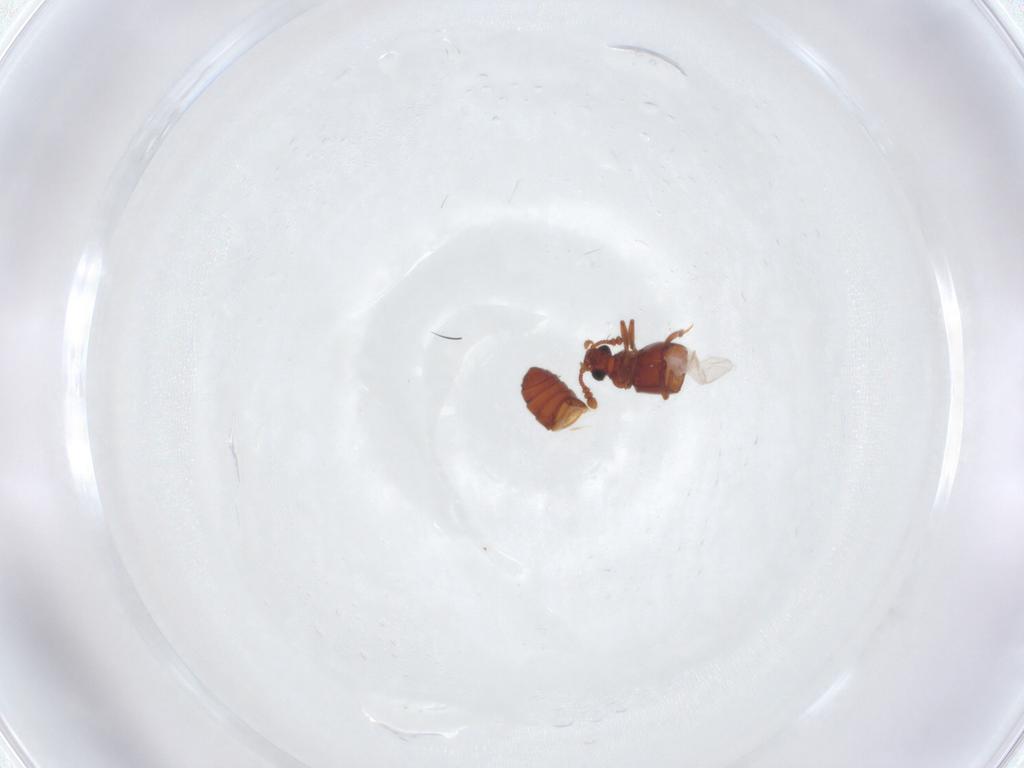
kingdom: Animalia
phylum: Arthropoda
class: Insecta
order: Coleoptera
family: Staphylinidae
